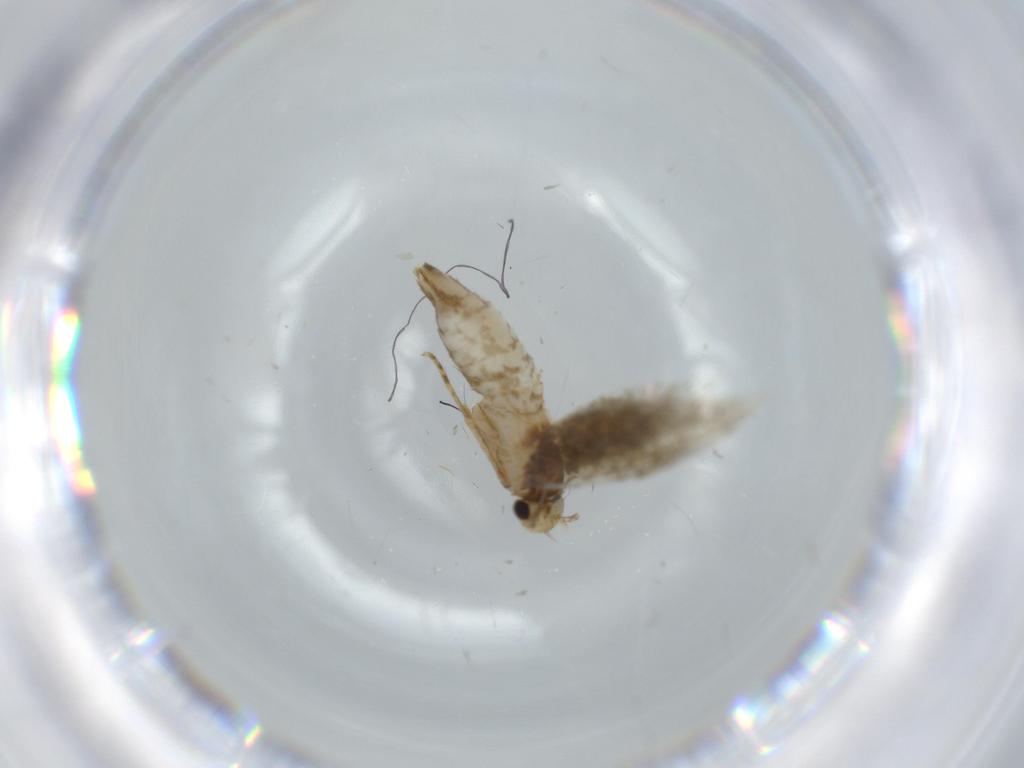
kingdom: Animalia
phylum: Arthropoda
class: Insecta
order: Lepidoptera
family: Tineidae
